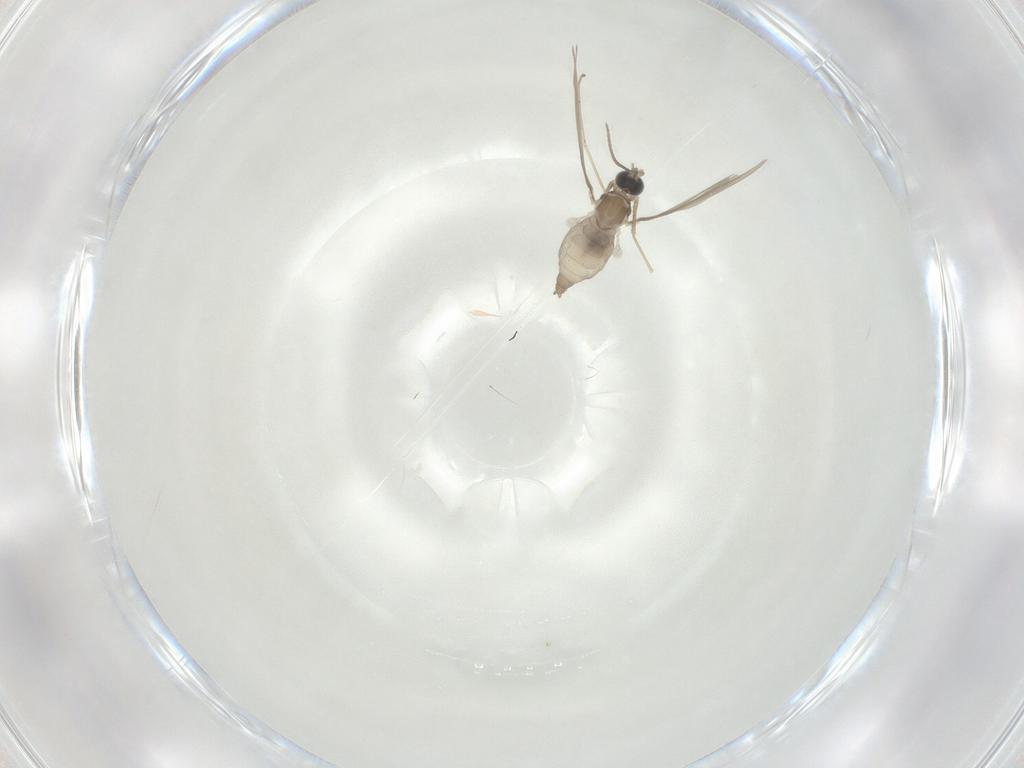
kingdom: Animalia
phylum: Arthropoda
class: Insecta
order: Diptera
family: Cecidomyiidae
